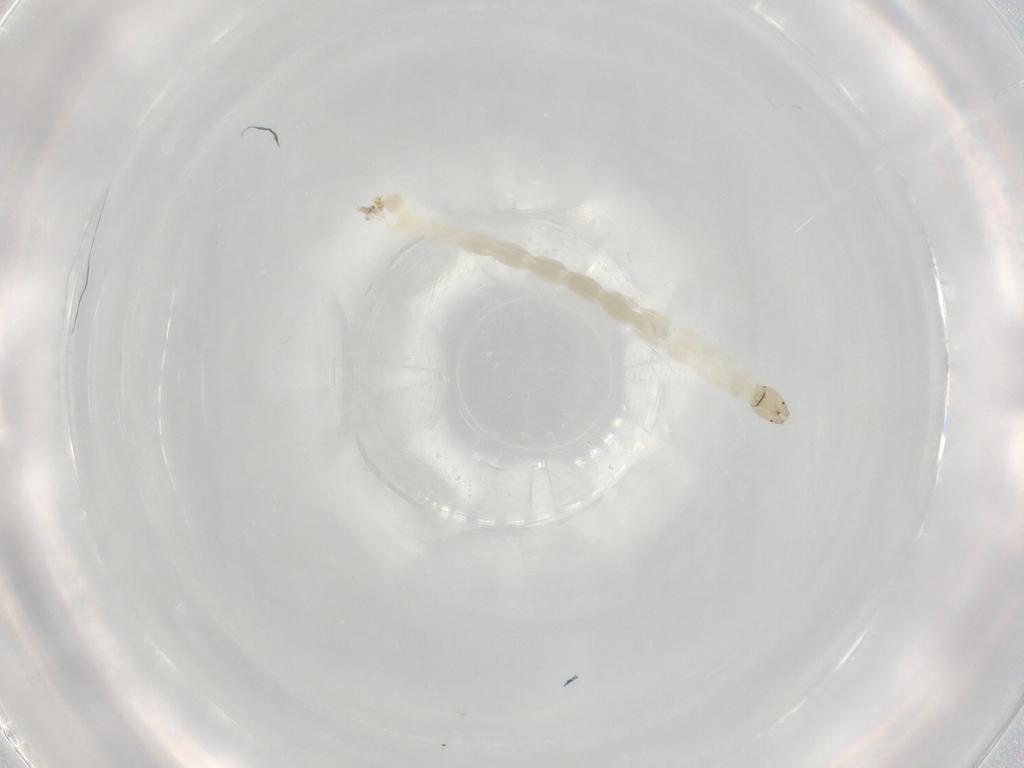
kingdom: Animalia
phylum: Arthropoda
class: Insecta
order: Diptera
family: Chironomidae
